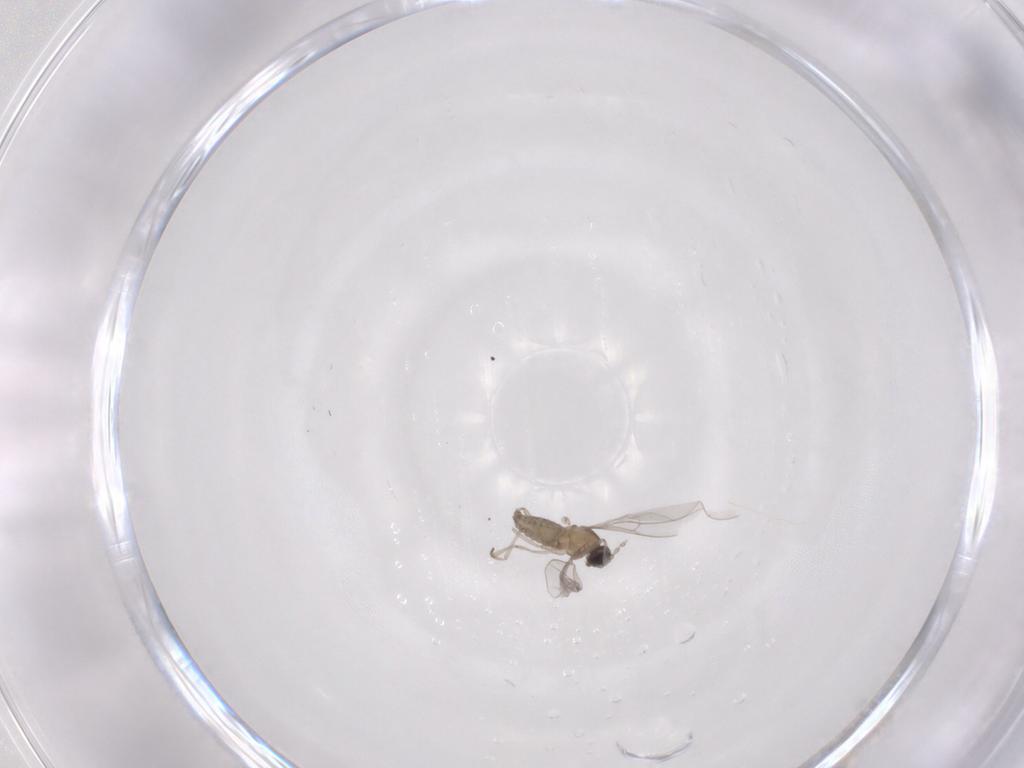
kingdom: Animalia
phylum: Arthropoda
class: Insecta
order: Diptera
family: Cecidomyiidae
